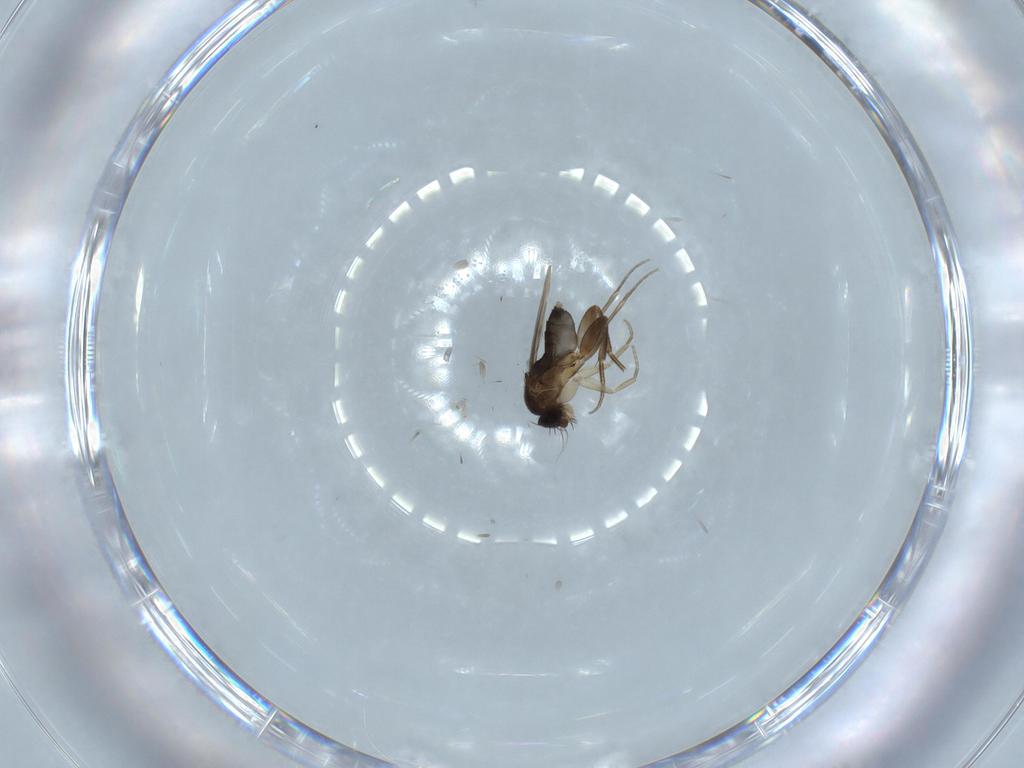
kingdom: Animalia
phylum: Arthropoda
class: Insecta
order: Diptera
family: Phoridae
